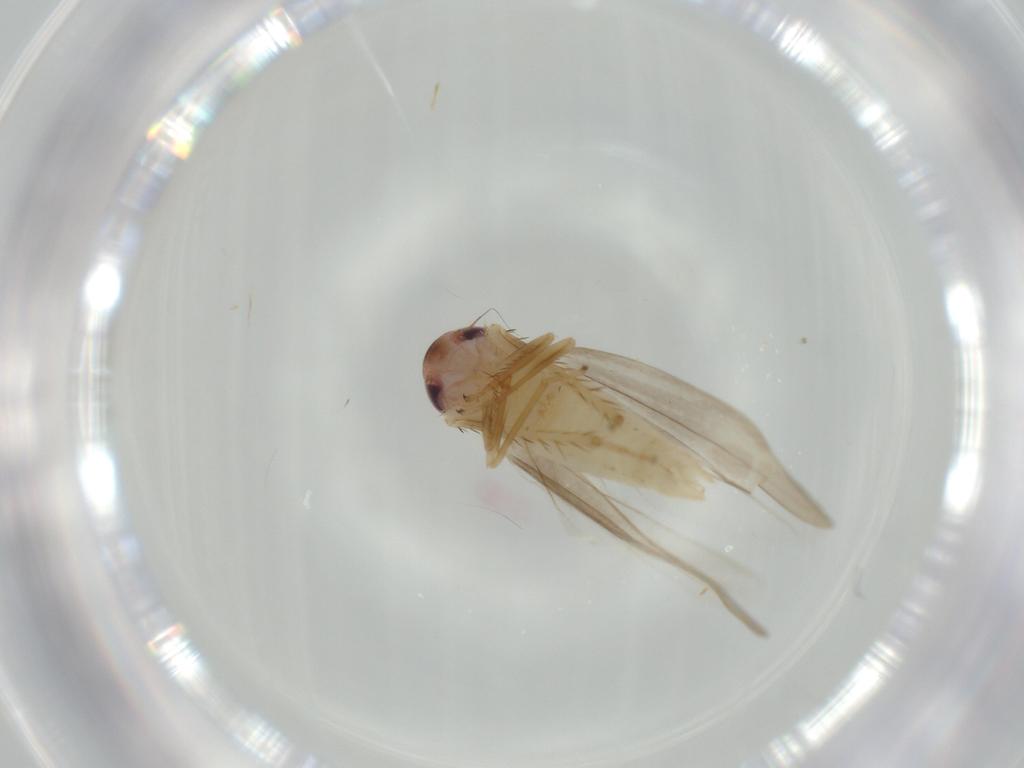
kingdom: Animalia
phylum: Arthropoda
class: Insecta
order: Hemiptera
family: Cicadellidae
